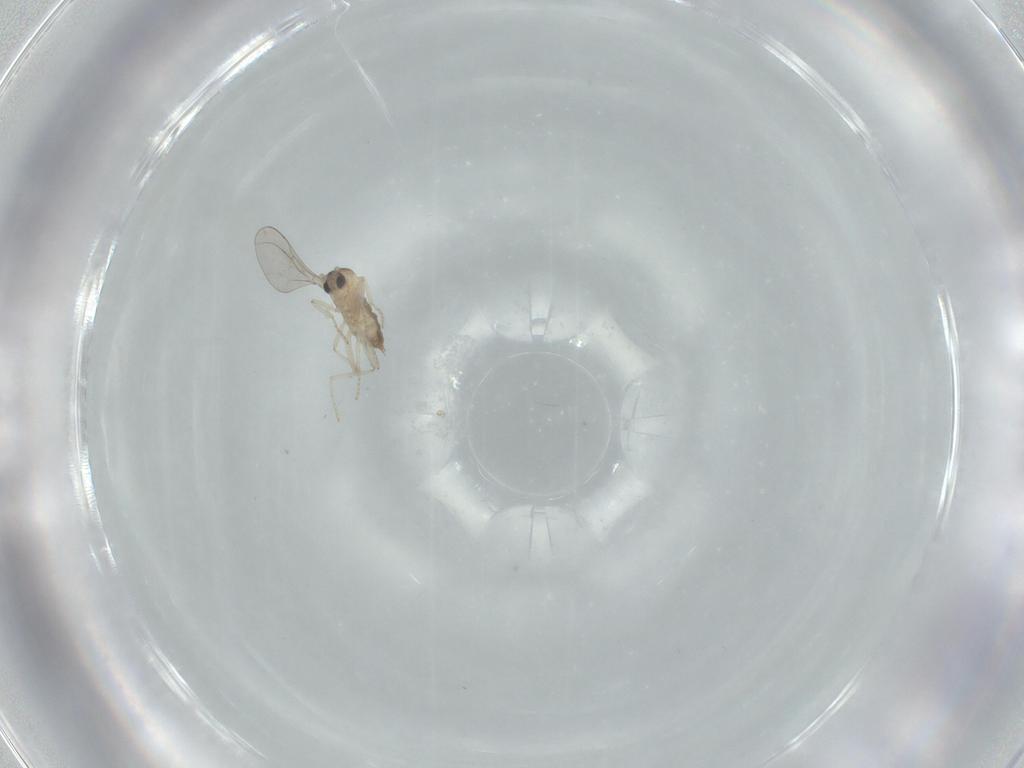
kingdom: Animalia
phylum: Arthropoda
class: Insecta
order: Diptera
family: Cecidomyiidae
